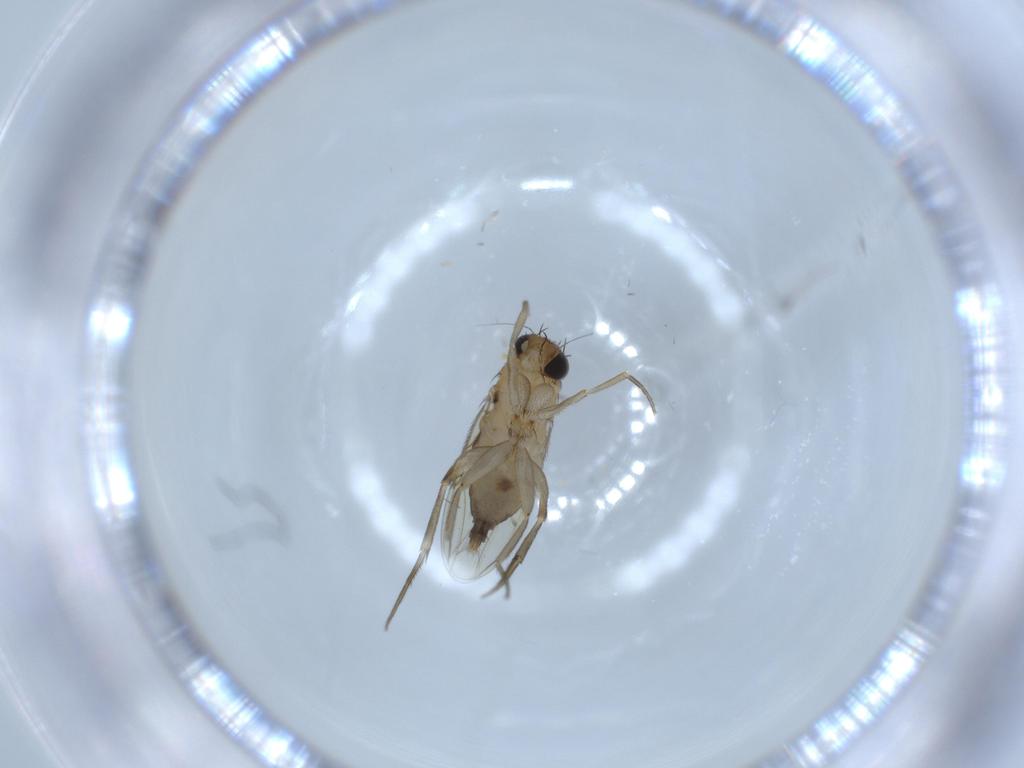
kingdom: Animalia
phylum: Arthropoda
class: Insecta
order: Diptera
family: Phoridae
